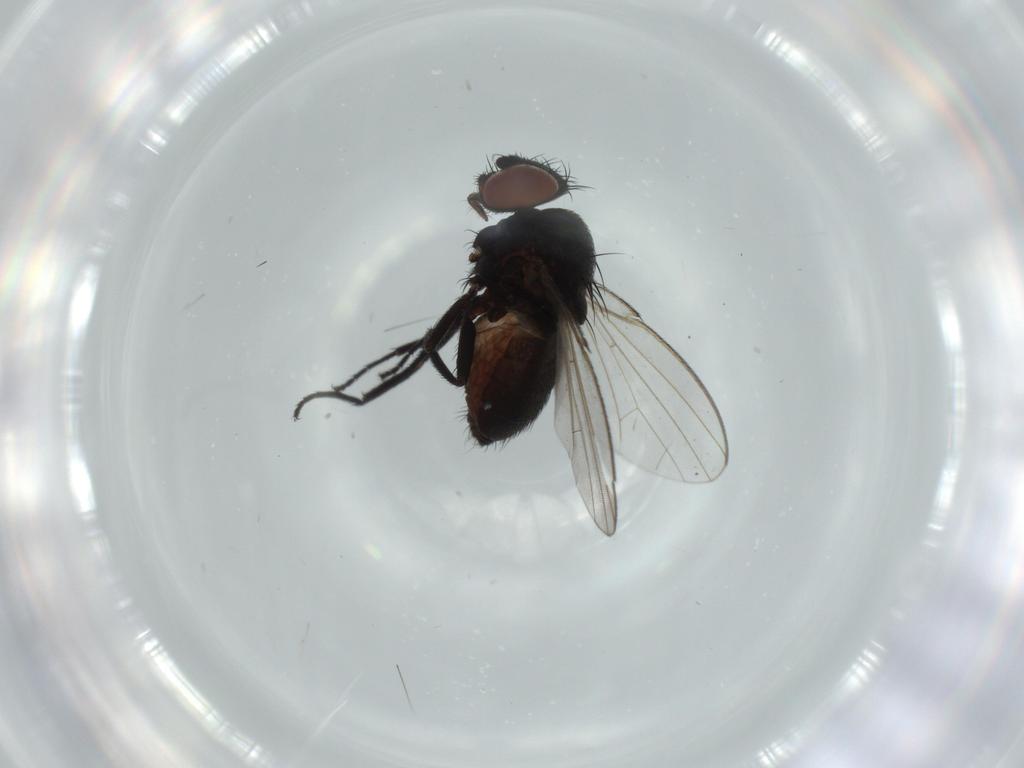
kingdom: Animalia
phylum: Arthropoda
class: Insecta
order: Diptera
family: Milichiidae
